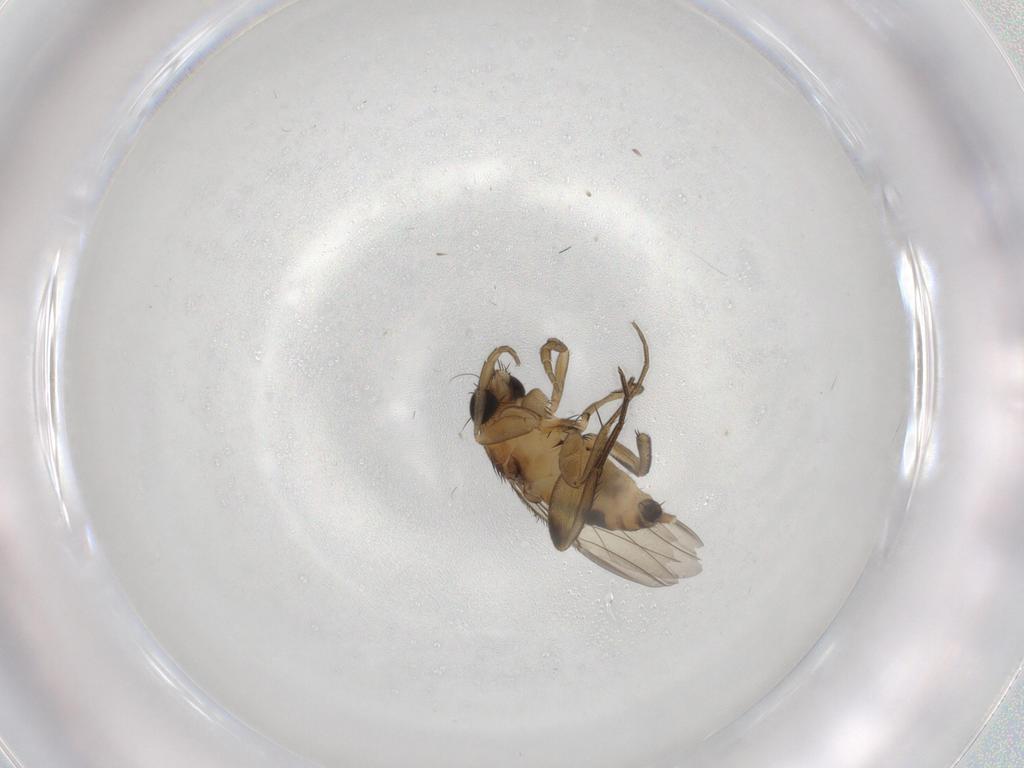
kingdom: Animalia
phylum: Arthropoda
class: Insecta
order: Diptera
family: Phoridae
